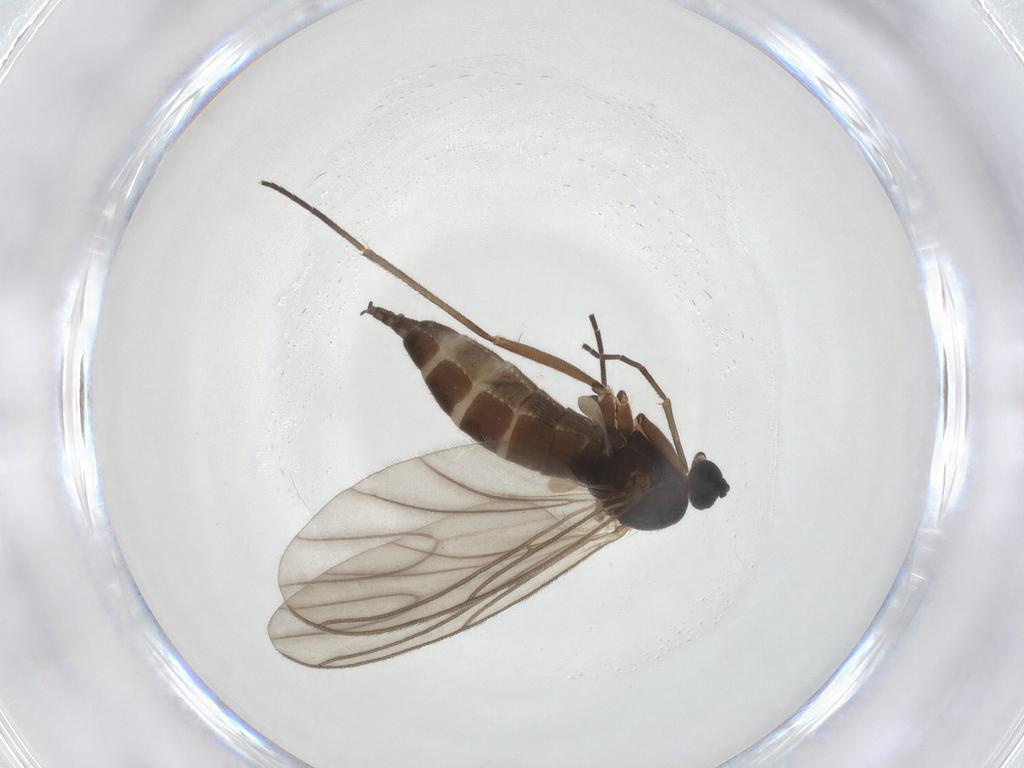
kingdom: Animalia
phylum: Arthropoda
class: Insecta
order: Diptera
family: Sciaridae
